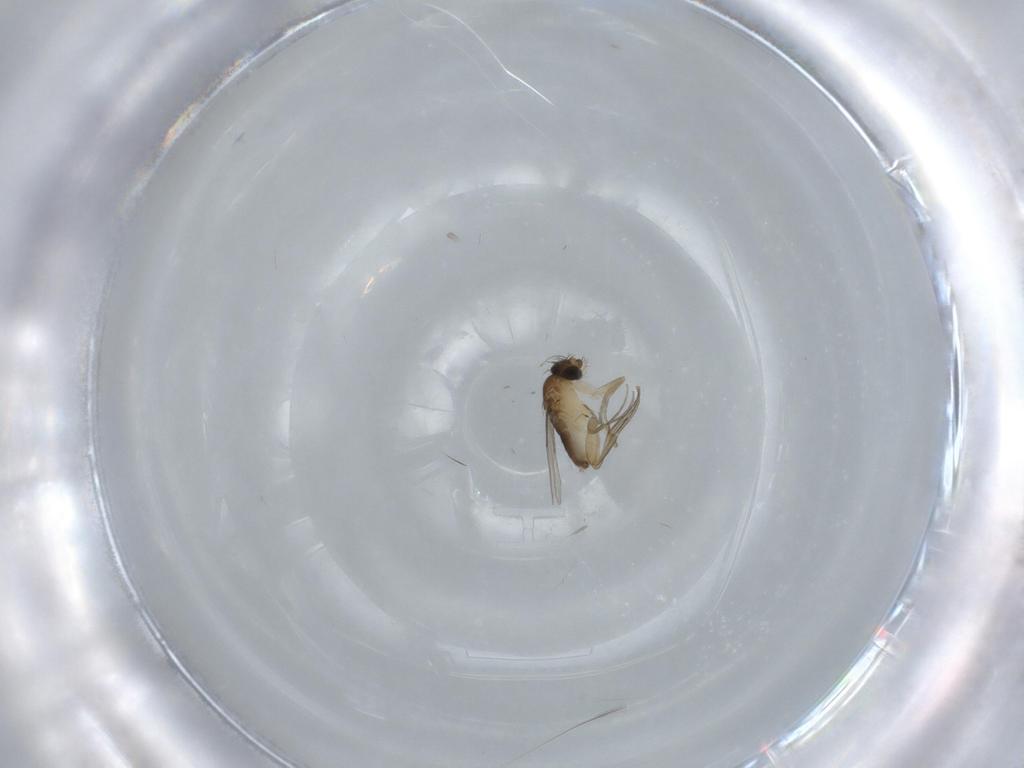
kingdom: Animalia
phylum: Arthropoda
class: Insecta
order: Diptera
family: Phoridae
